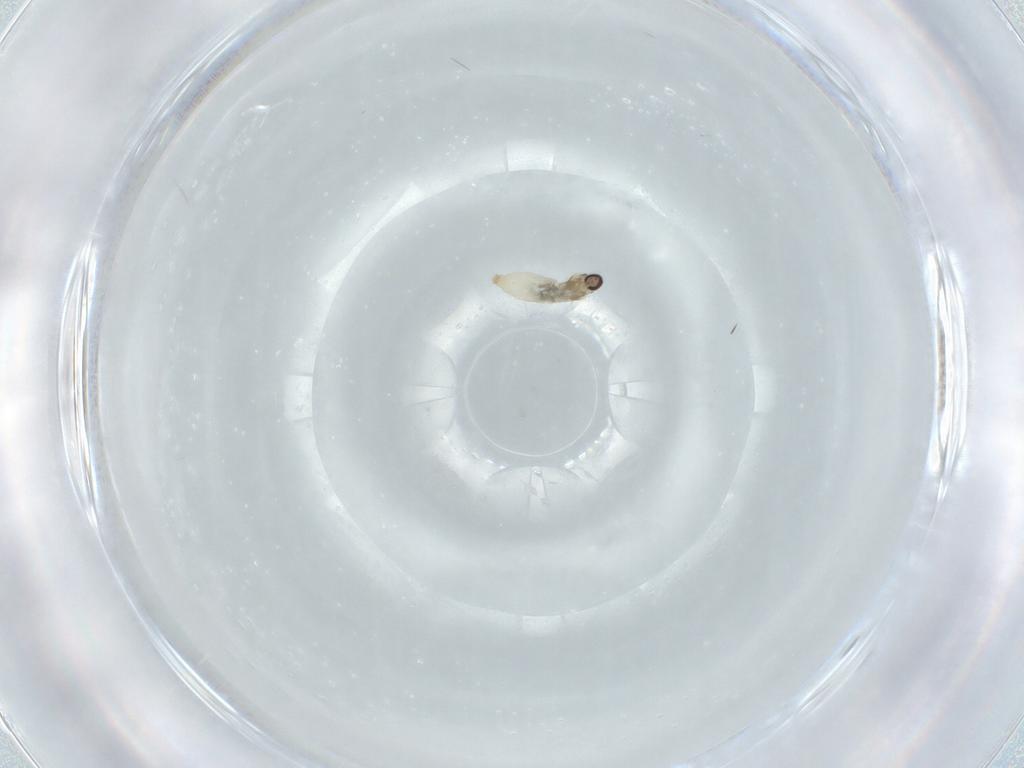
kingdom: Animalia
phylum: Arthropoda
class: Insecta
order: Diptera
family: Cecidomyiidae
